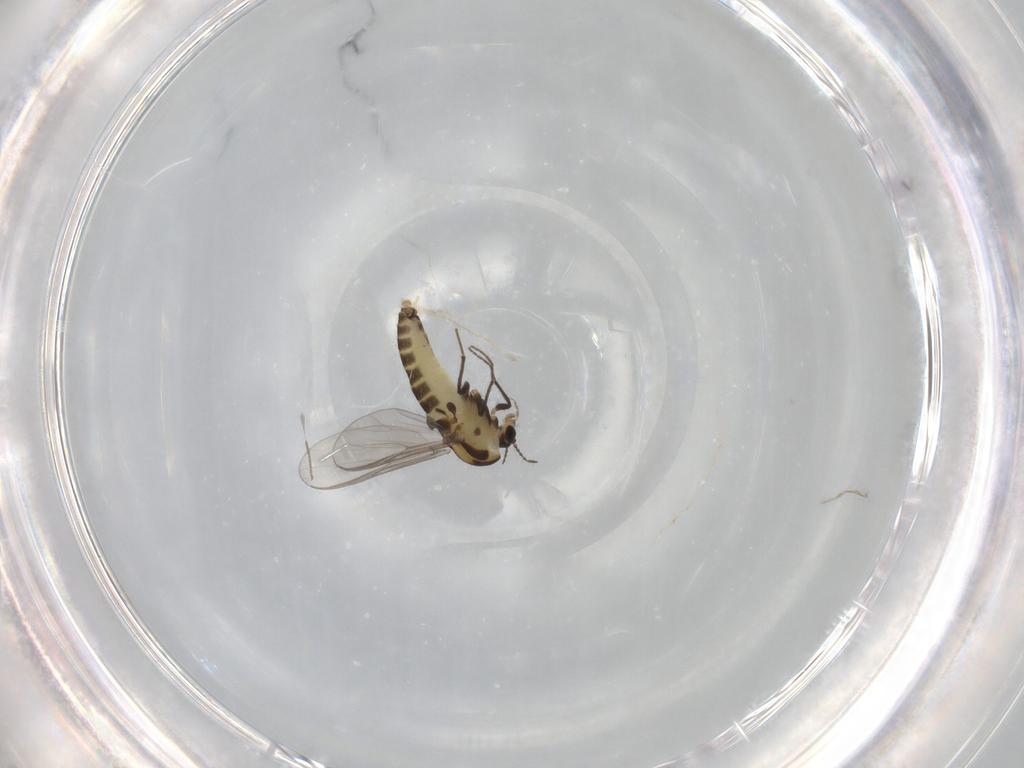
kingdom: Animalia
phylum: Arthropoda
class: Insecta
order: Diptera
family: Chironomidae
